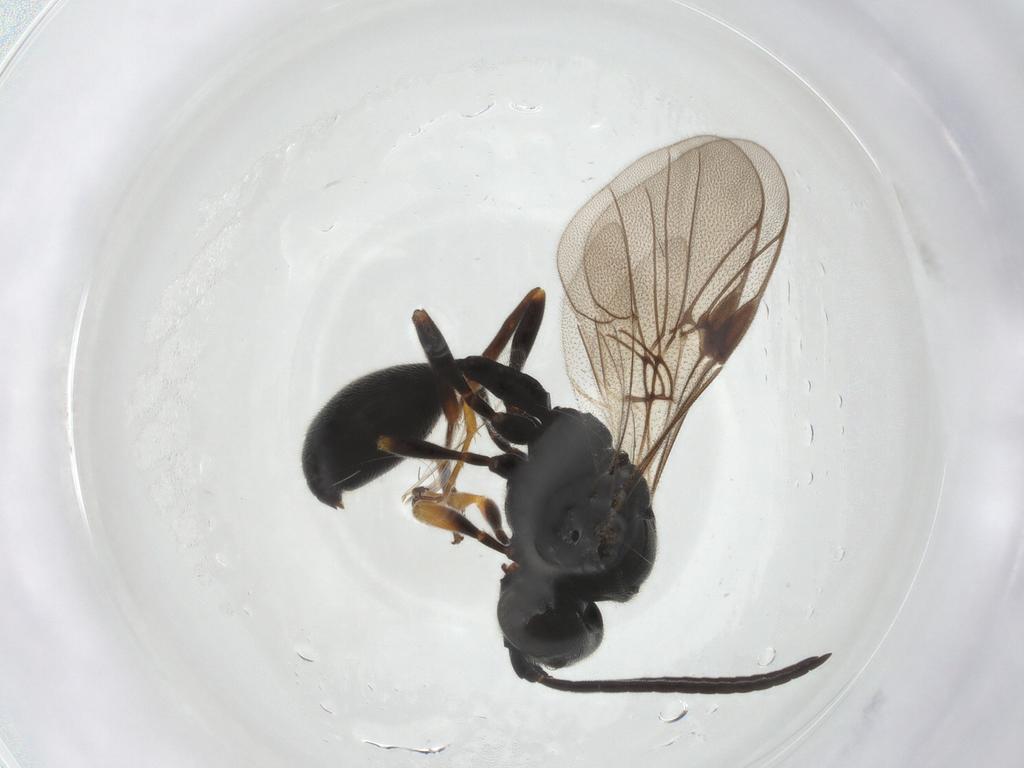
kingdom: Animalia
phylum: Arthropoda
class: Insecta
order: Hymenoptera
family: Eulophidae
